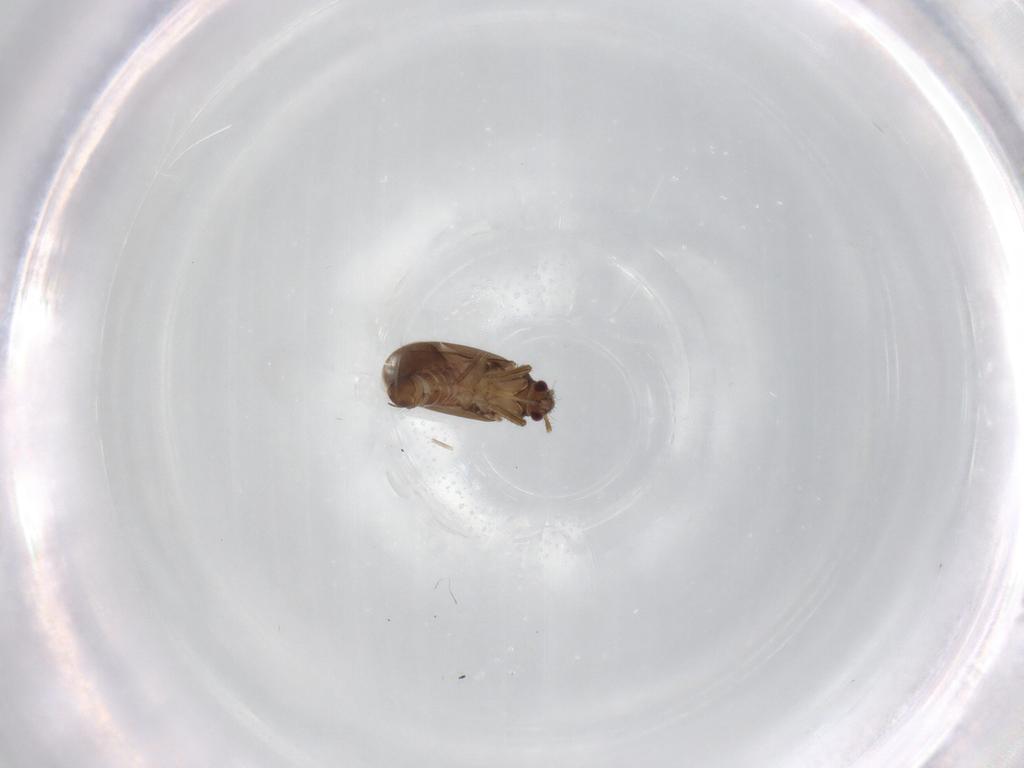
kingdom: Animalia
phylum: Arthropoda
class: Insecta
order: Hemiptera
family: Ceratocombidae
